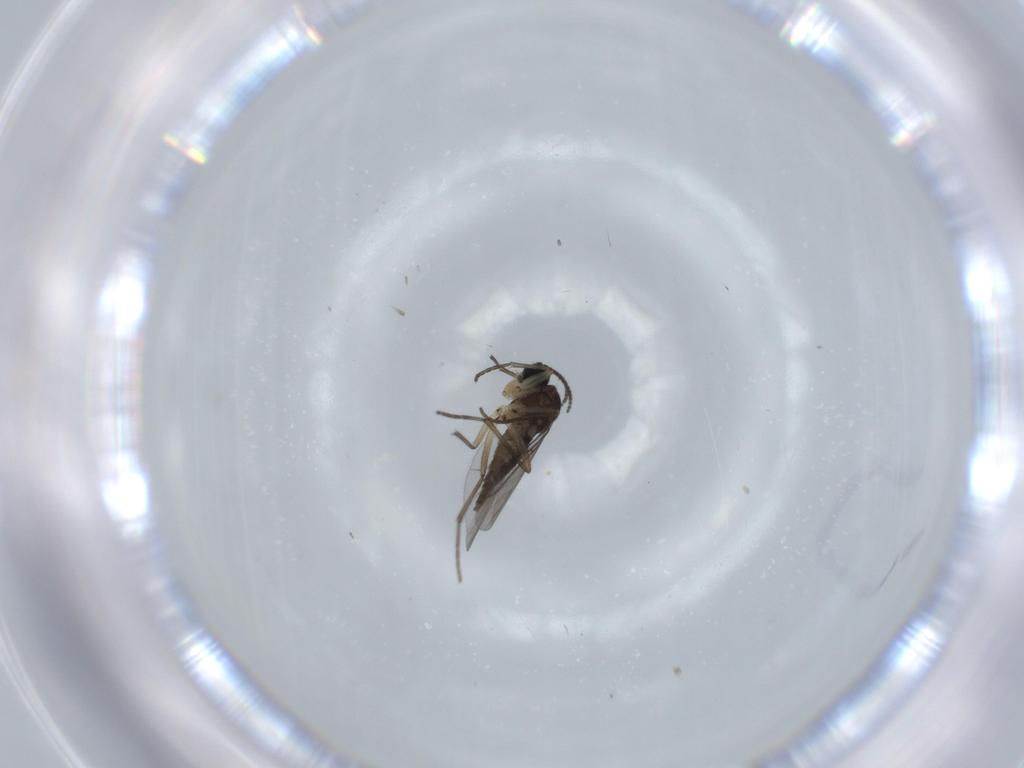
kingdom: Animalia
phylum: Arthropoda
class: Insecta
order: Diptera
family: Sciaridae
